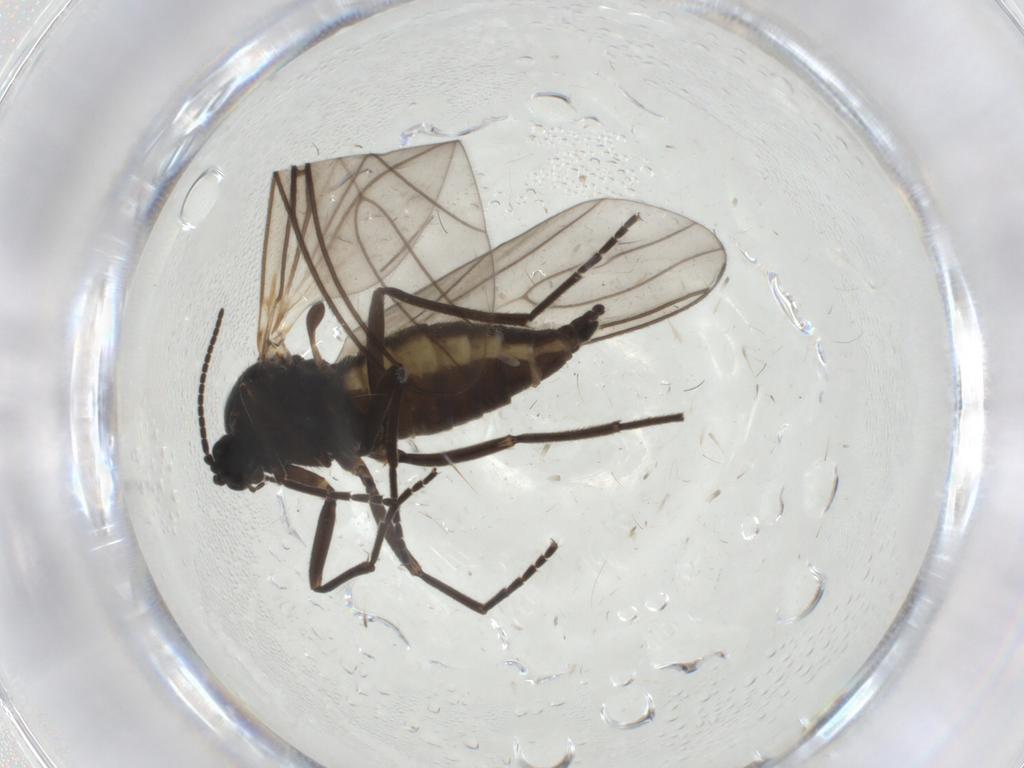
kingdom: Animalia
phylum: Arthropoda
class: Insecta
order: Diptera
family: Sciaridae
